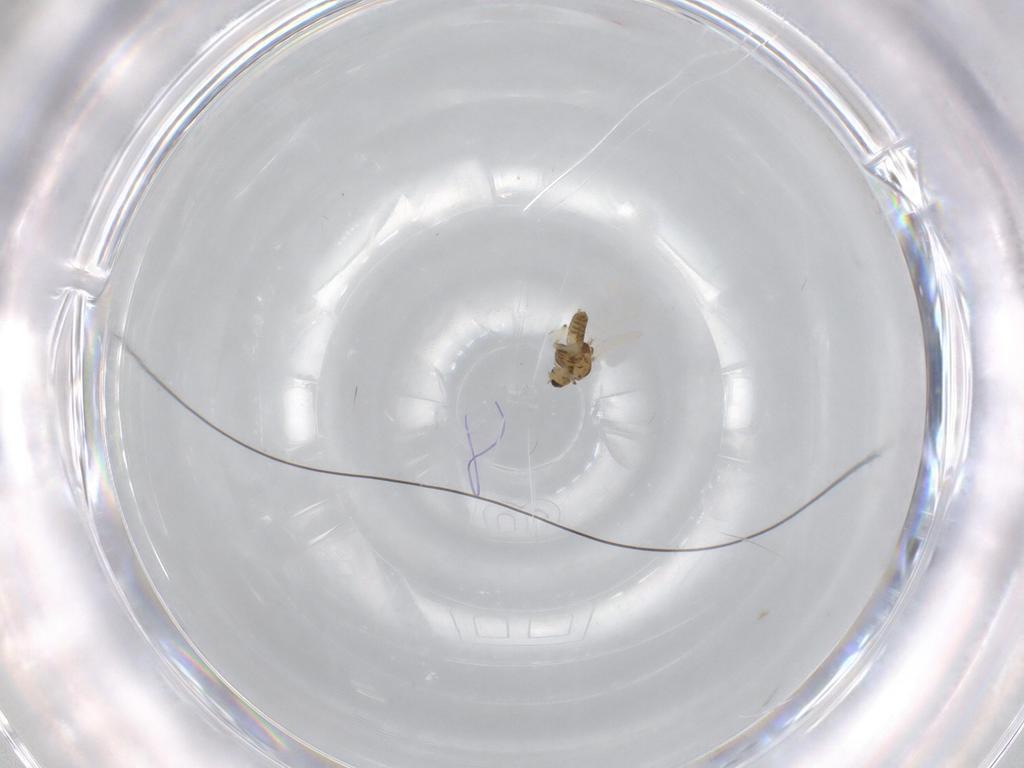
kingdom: Animalia
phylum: Arthropoda
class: Insecta
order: Diptera
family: Chironomidae
